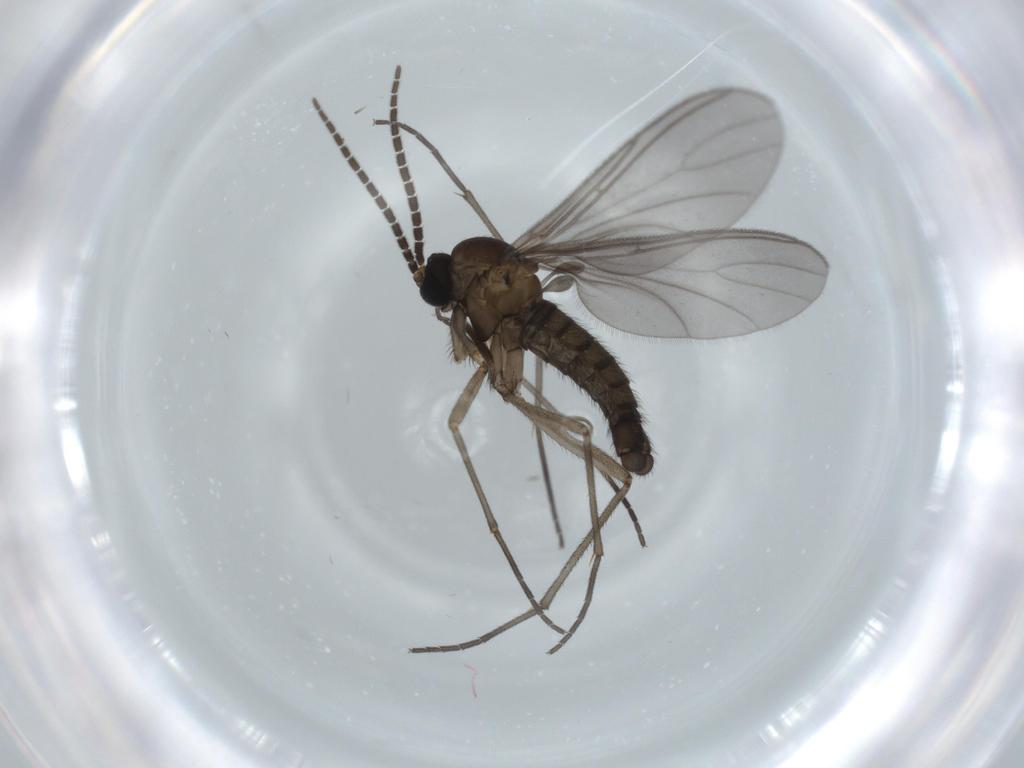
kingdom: Animalia
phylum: Arthropoda
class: Insecta
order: Diptera
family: Sciaridae
